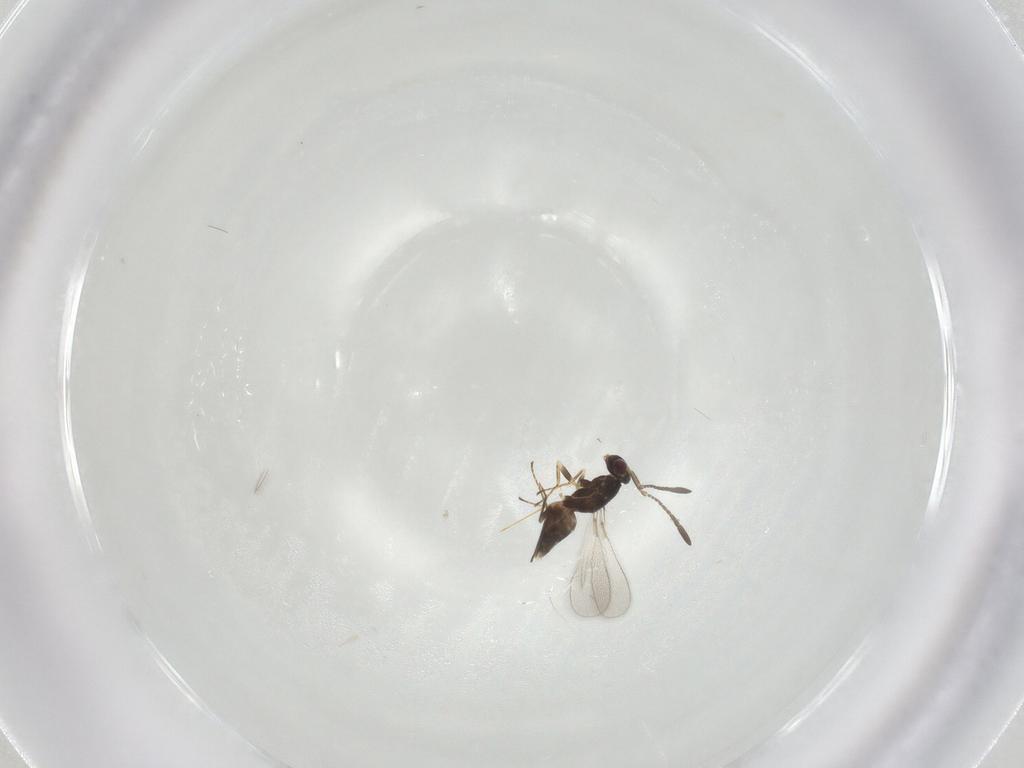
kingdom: Animalia
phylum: Arthropoda
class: Insecta
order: Hymenoptera
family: Mymaridae
